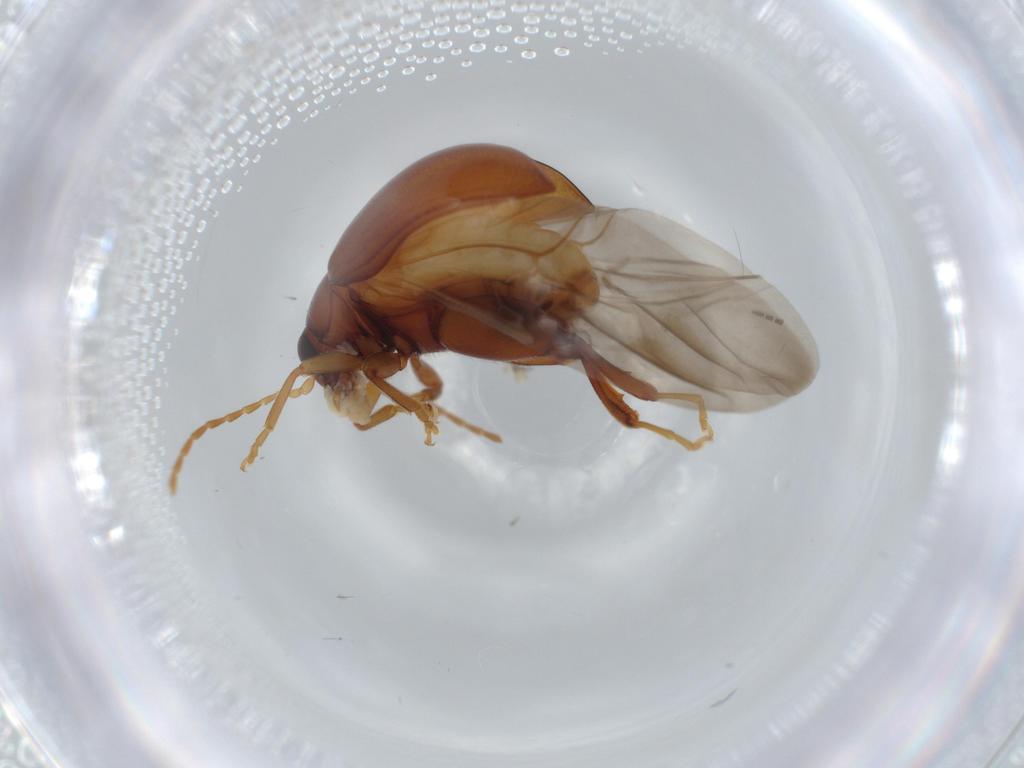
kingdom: Animalia
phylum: Arthropoda
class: Insecta
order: Coleoptera
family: Chrysomelidae
